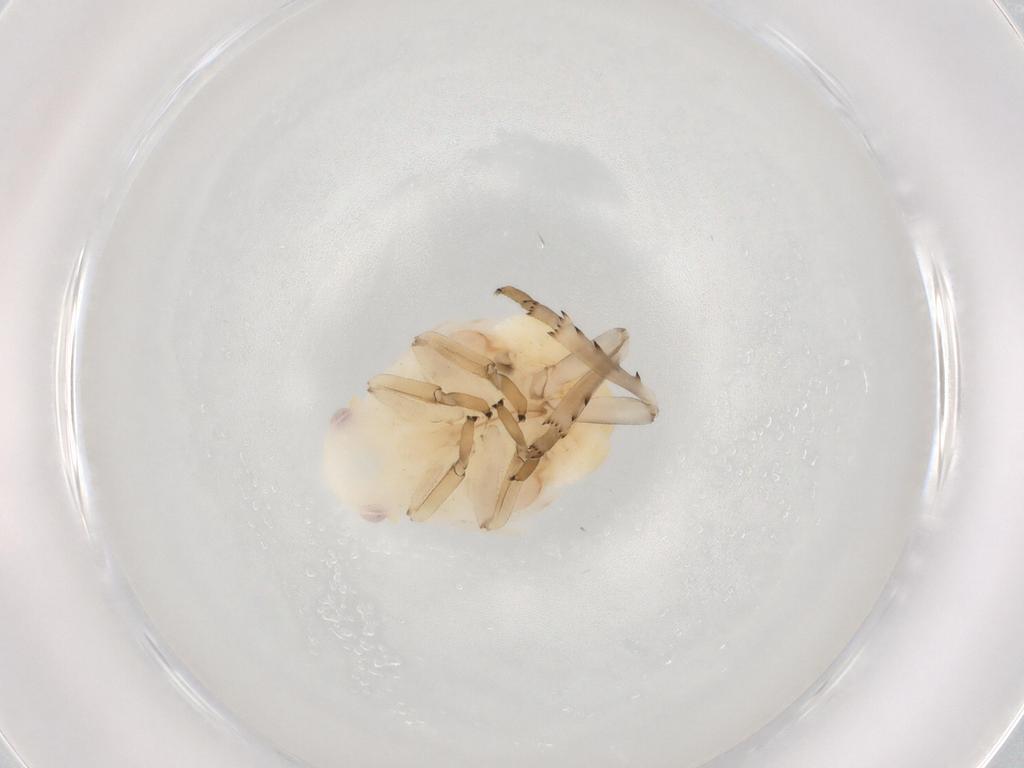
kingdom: Animalia
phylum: Arthropoda
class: Insecta
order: Hemiptera
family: Flatidae
